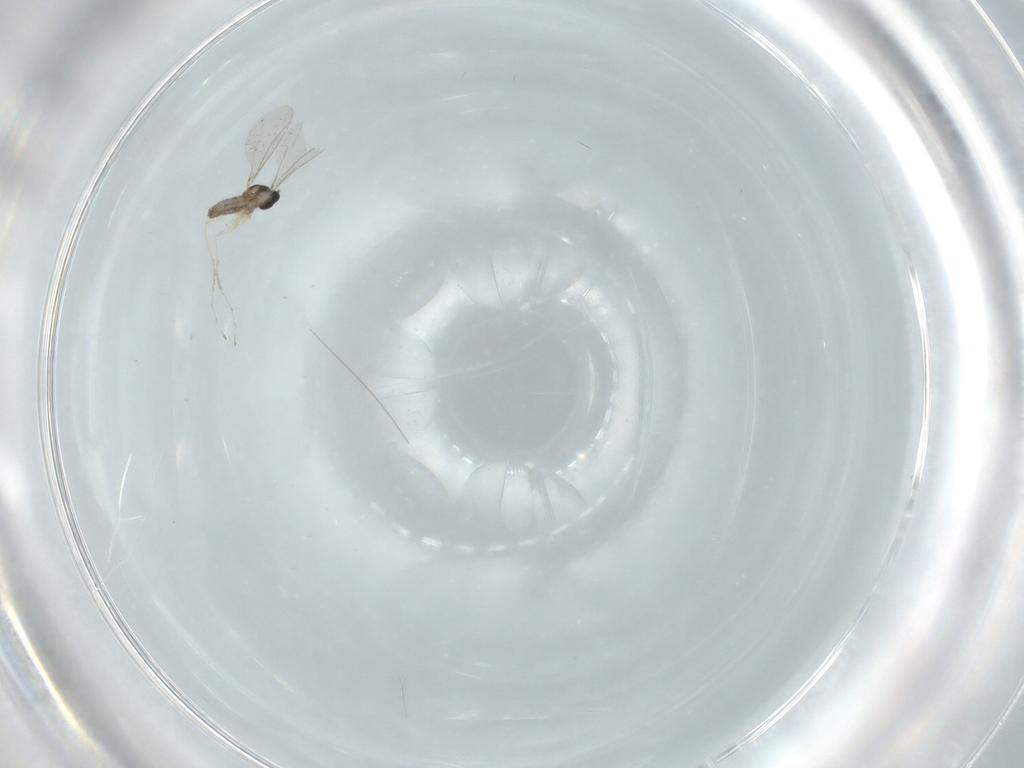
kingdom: Animalia
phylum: Arthropoda
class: Insecta
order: Diptera
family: Cecidomyiidae
